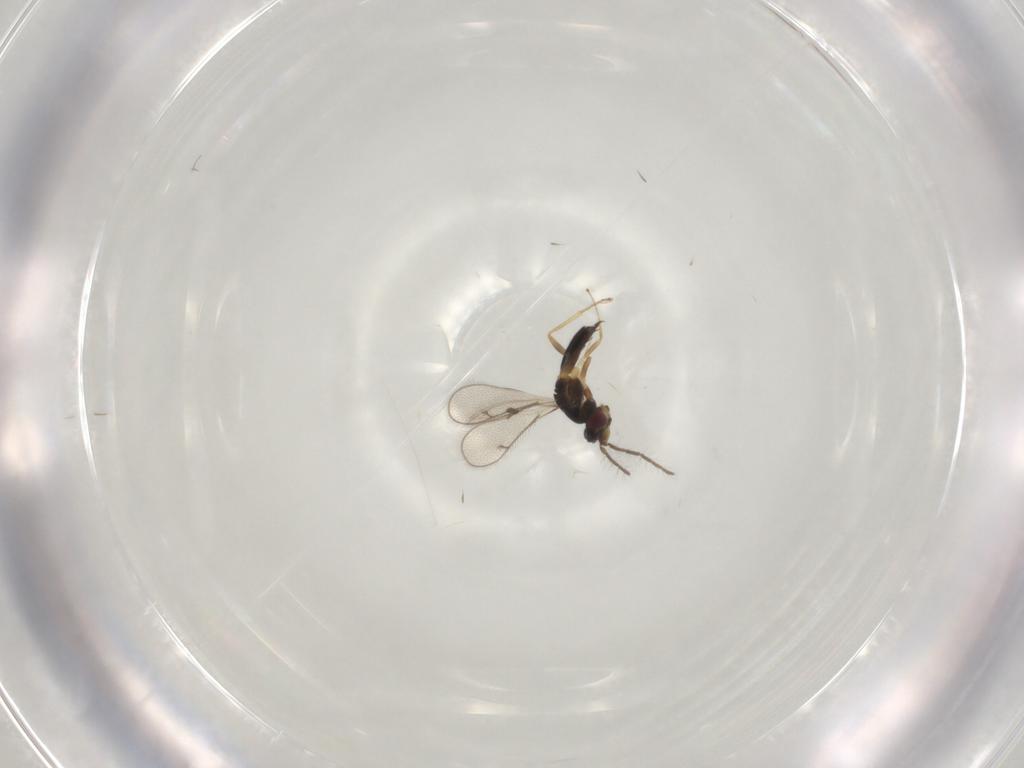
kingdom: Animalia
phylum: Arthropoda
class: Insecta
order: Hymenoptera
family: Eulophidae
